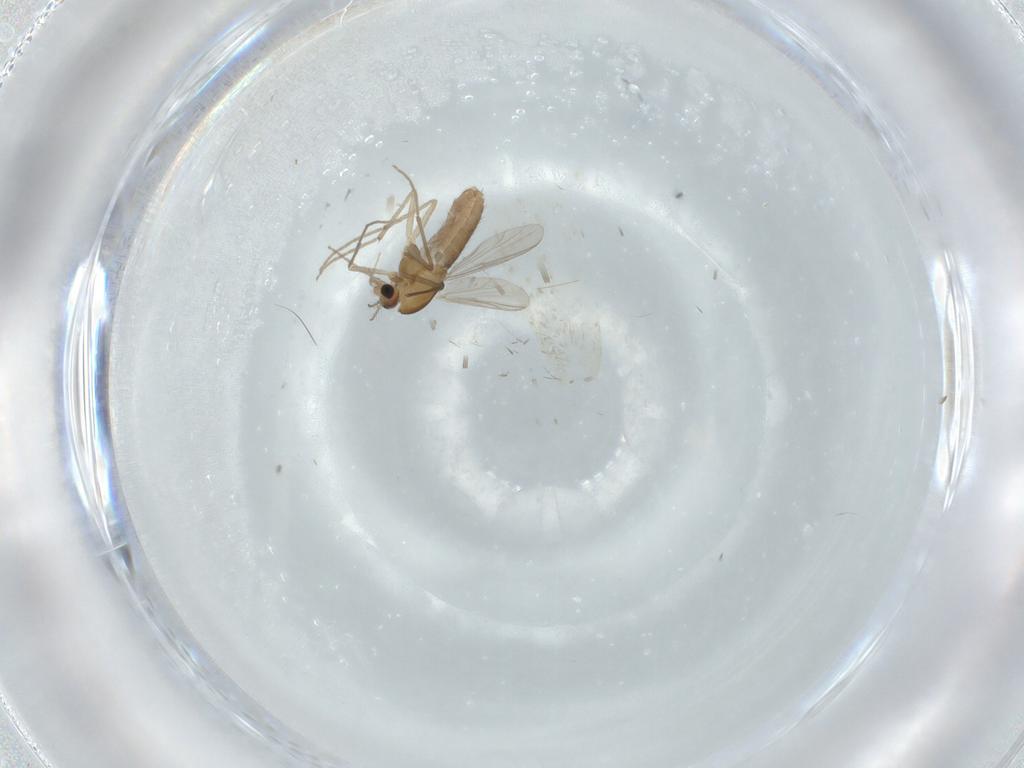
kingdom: Animalia
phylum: Arthropoda
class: Insecta
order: Diptera
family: Chironomidae
